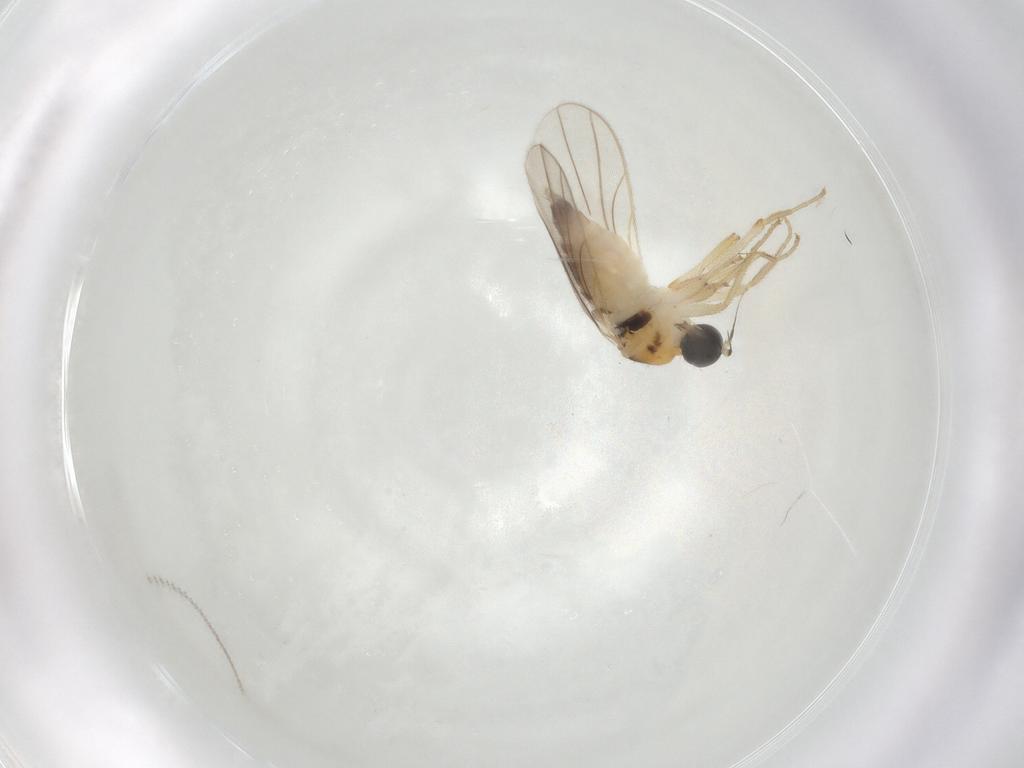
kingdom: Animalia
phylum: Arthropoda
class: Insecta
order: Diptera
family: Hybotidae
